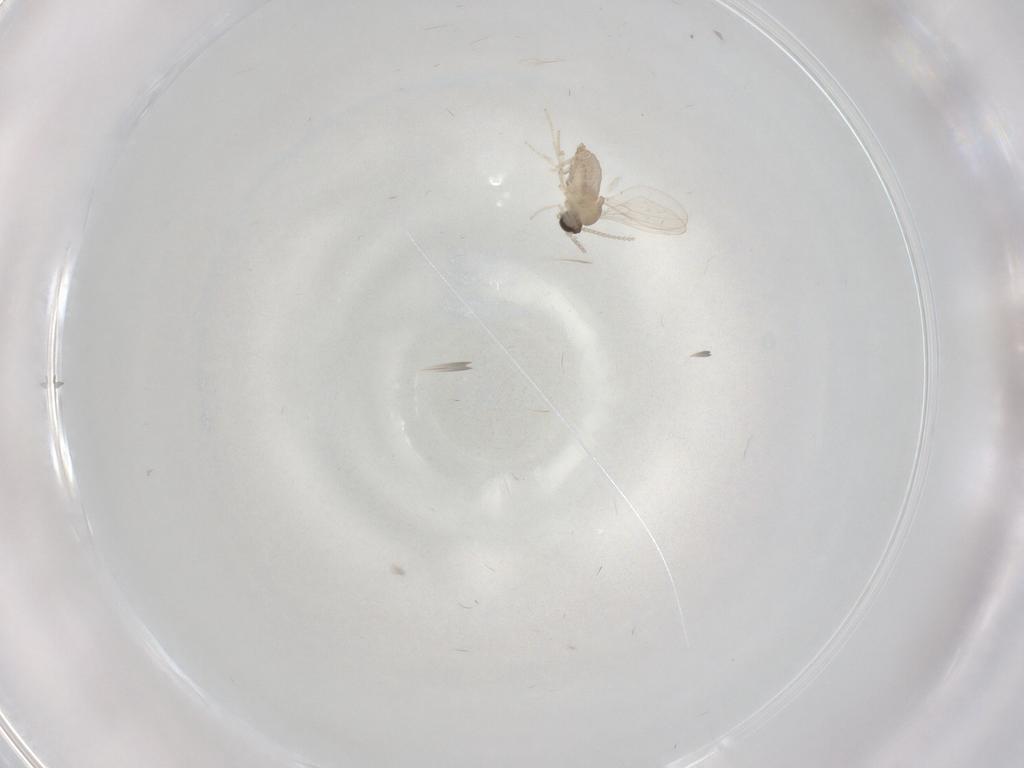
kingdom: Animalia
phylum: Arthropoda
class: Insecta
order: Diptera
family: Cecidomyiidae
